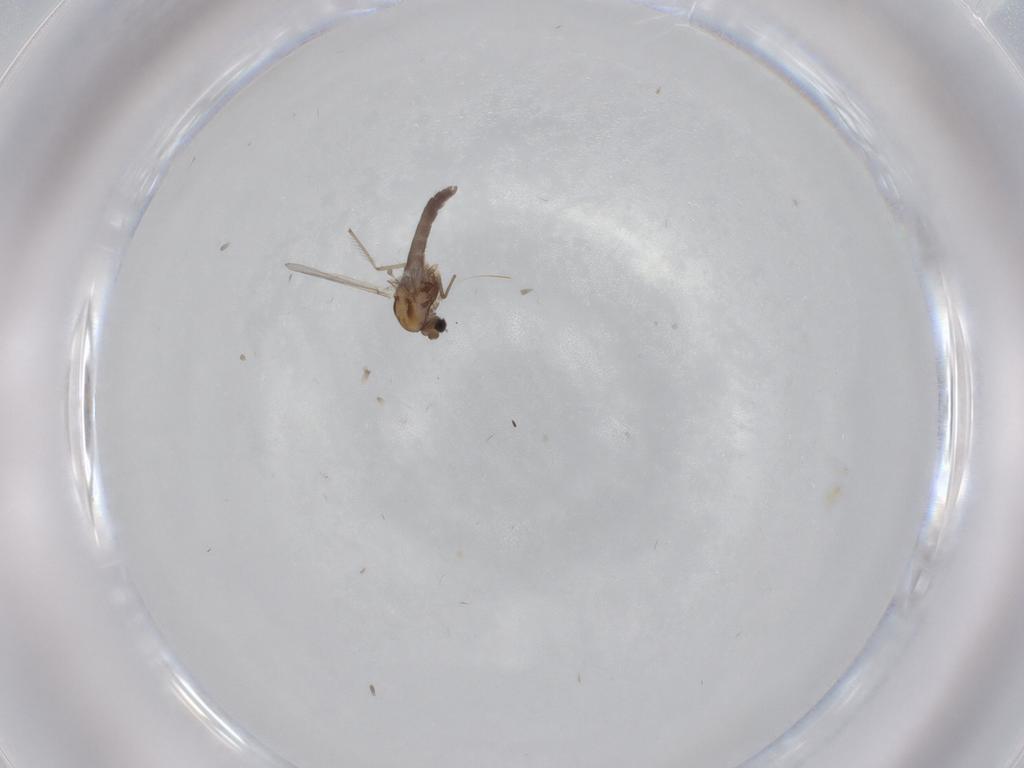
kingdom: Animalia
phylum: Arthropoda
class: Insecta
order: Diptera
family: Chironomidae
